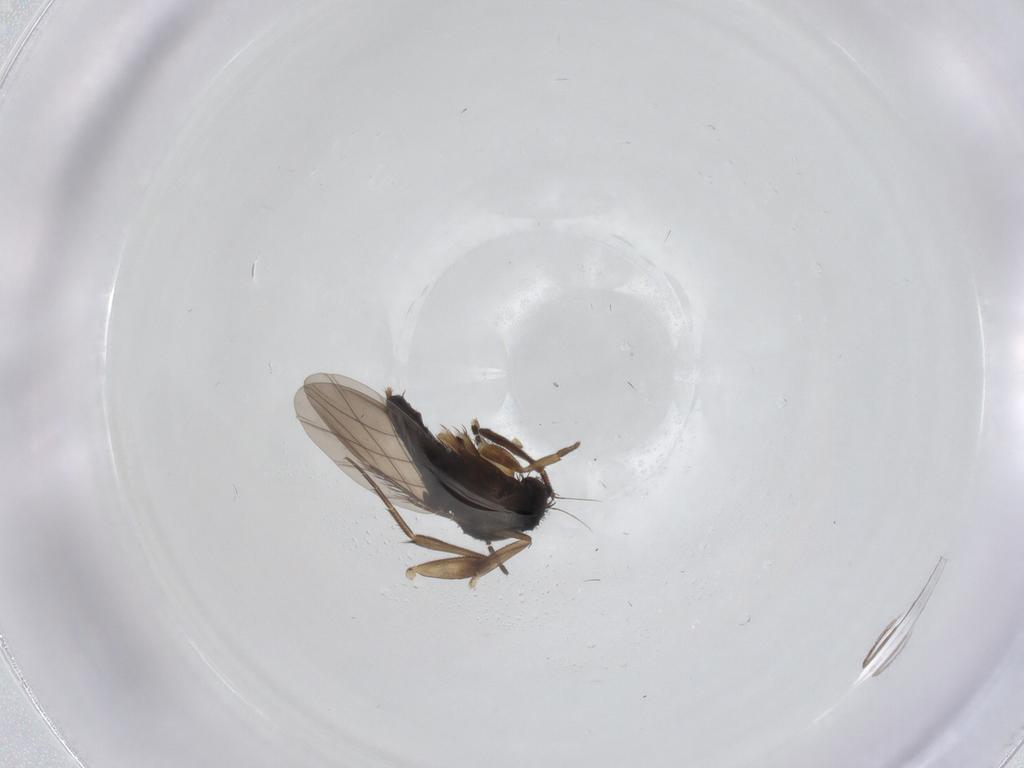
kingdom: Animalia
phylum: Arthropoda
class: Insecta
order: Diptera
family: Phoridae
